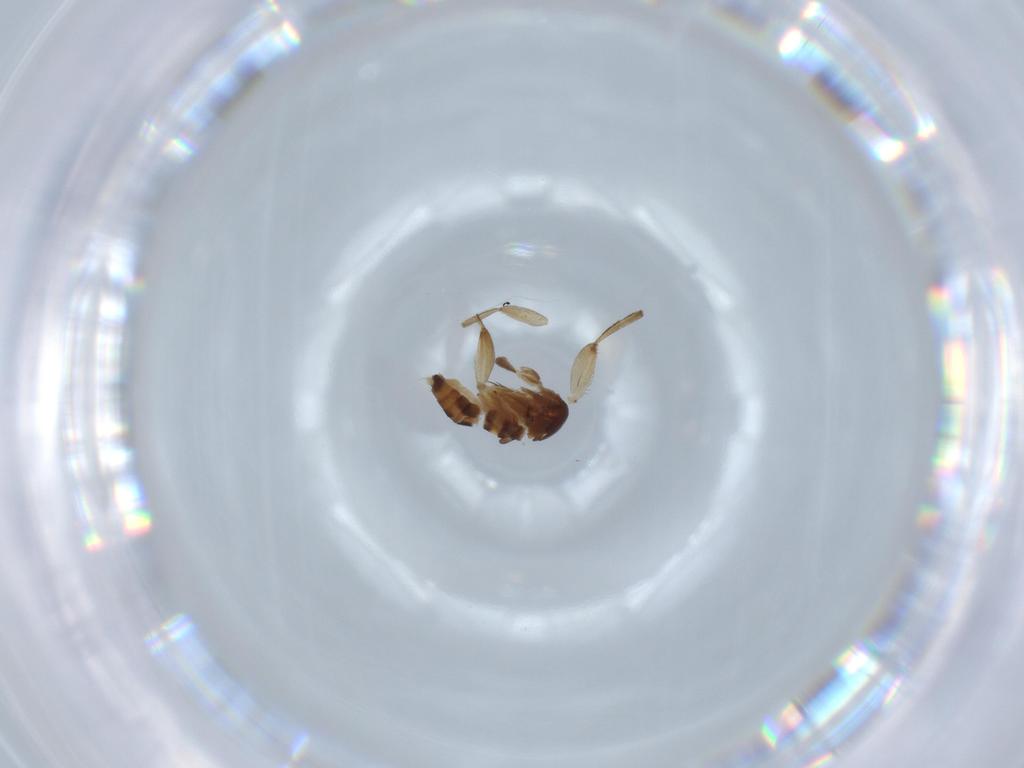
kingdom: Animalia
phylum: Arthropoda
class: Insecta
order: Diptera
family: Phoridae
